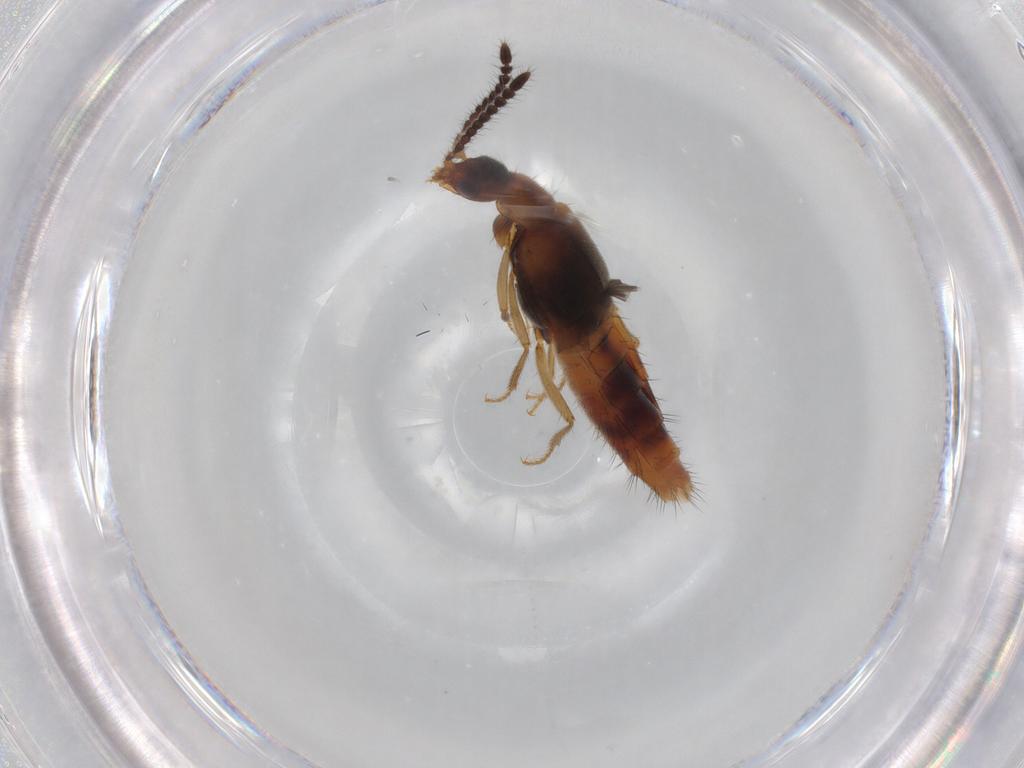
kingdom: Animalia
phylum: Arthropoda
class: Insecta
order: Coleoptera
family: Staphylinidae
